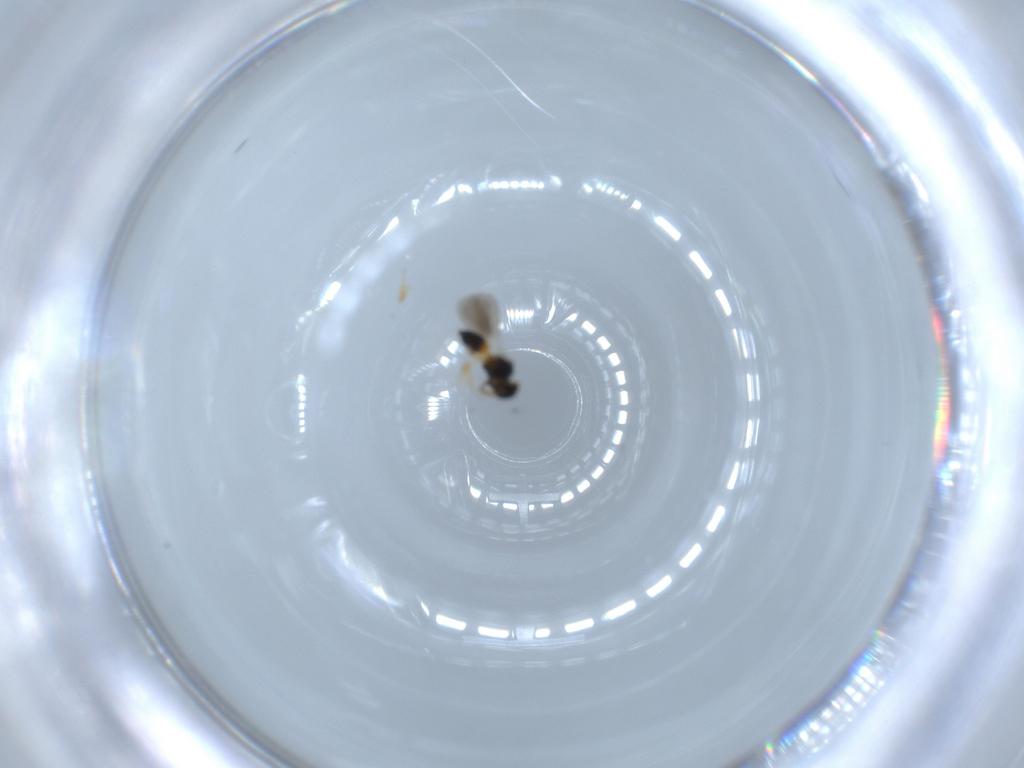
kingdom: Animalia
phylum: Arthropoda
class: Insecta
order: Hymenoptera
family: Platygastridae
